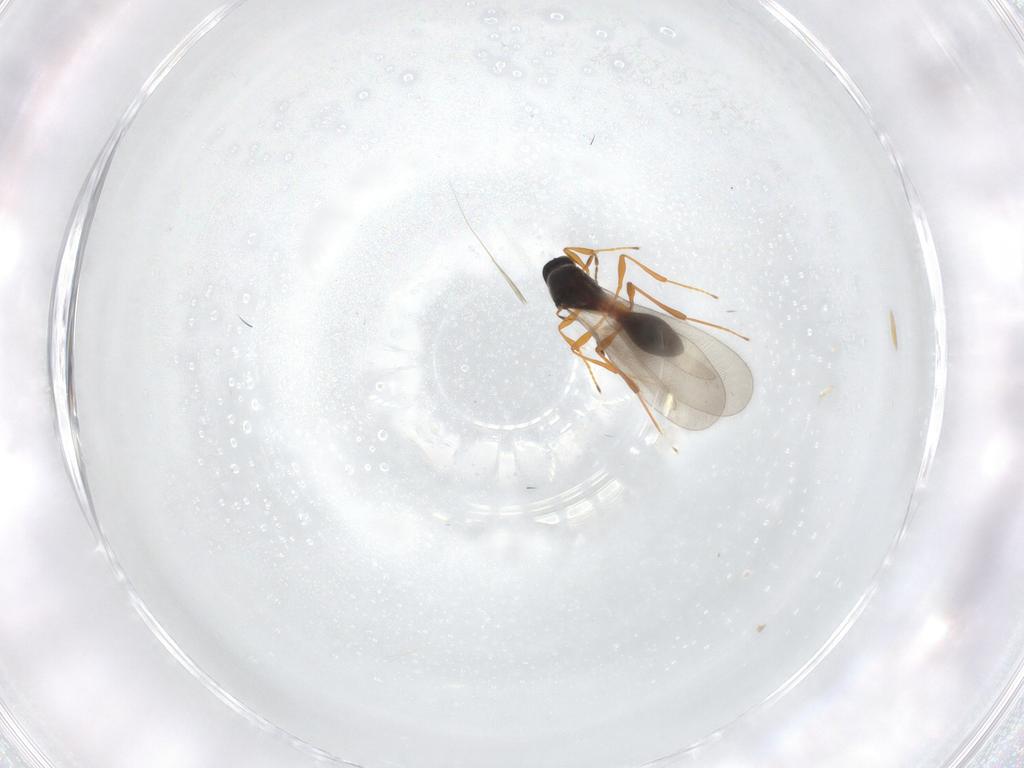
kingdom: Animalia
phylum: Arthropoda
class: Insecta
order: Hymenoptera
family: Platygastridae
